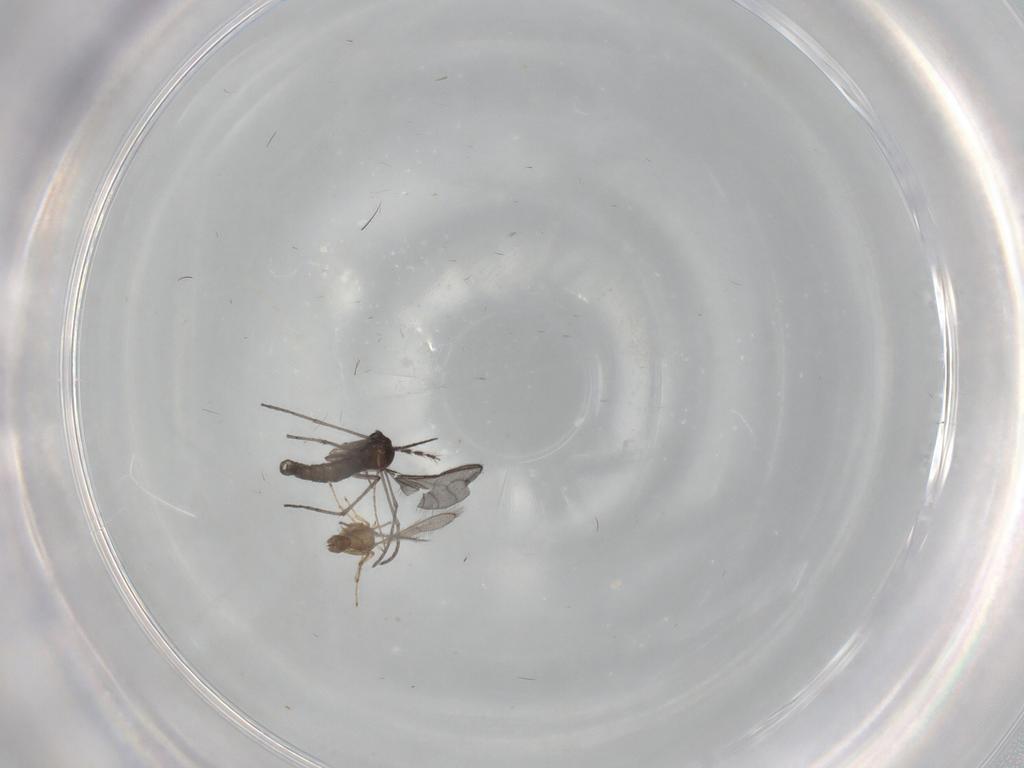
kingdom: Animalia
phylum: Arthropoda
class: Insecta
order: Diptera
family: Sciaridae
